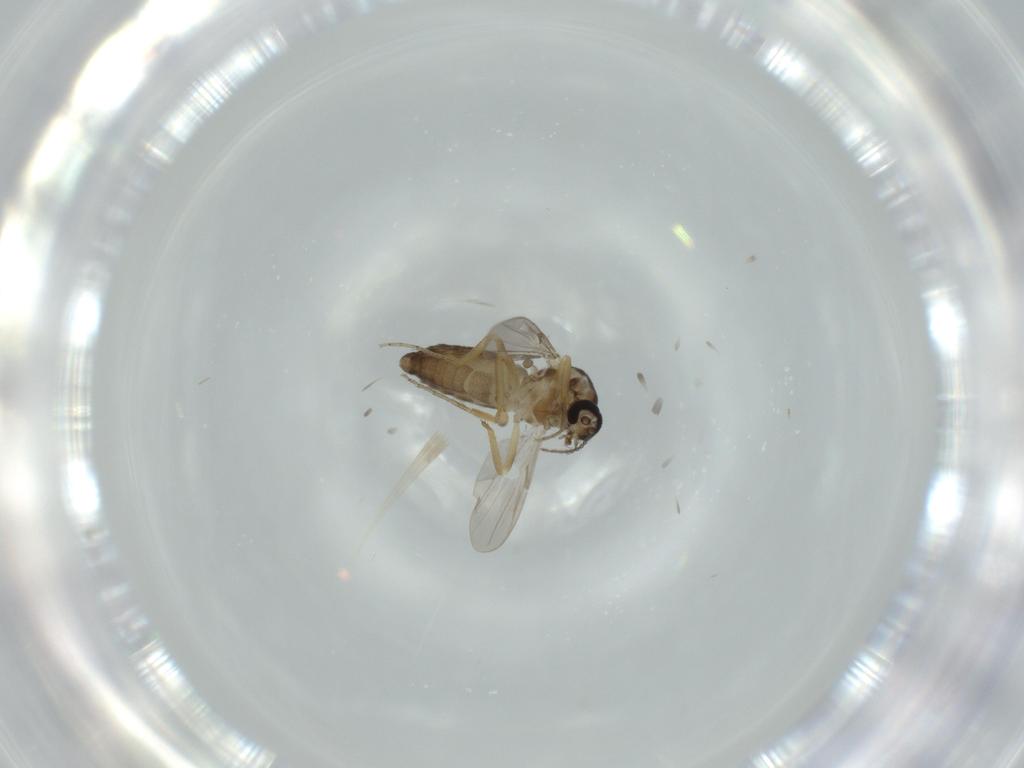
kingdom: Animalia
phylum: Arthropoda
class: Insecta
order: Diptera
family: Ceratopogonidae
